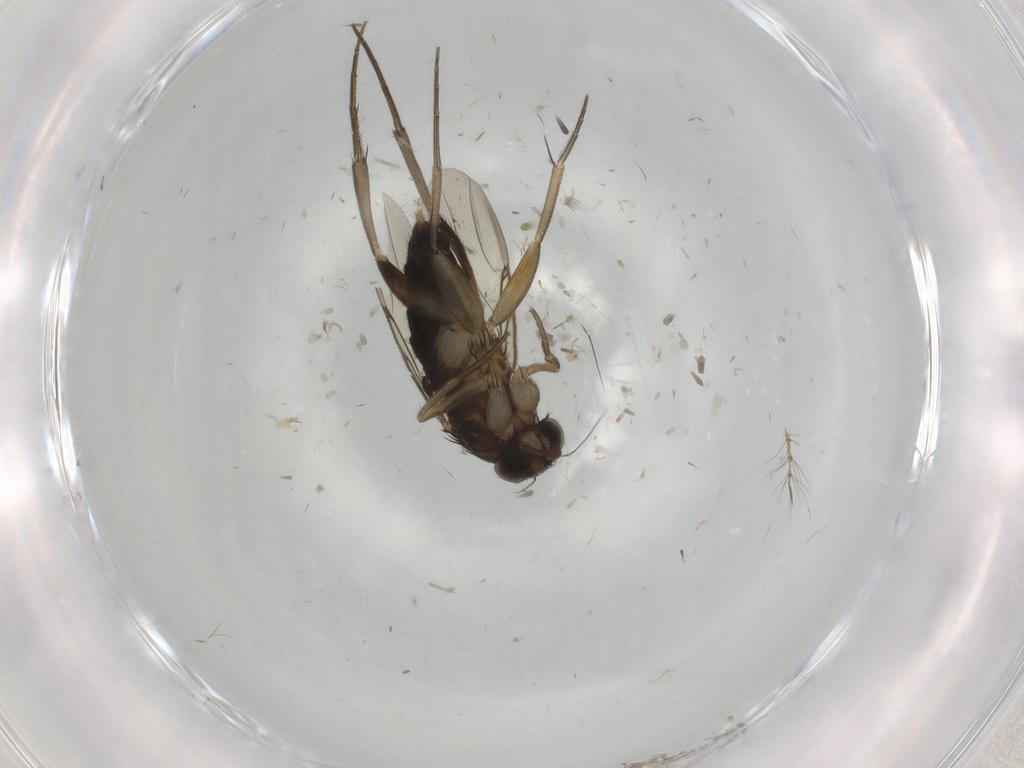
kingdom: Animalia
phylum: Arthropoda
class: Insecta
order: Diptera
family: Phoridae
